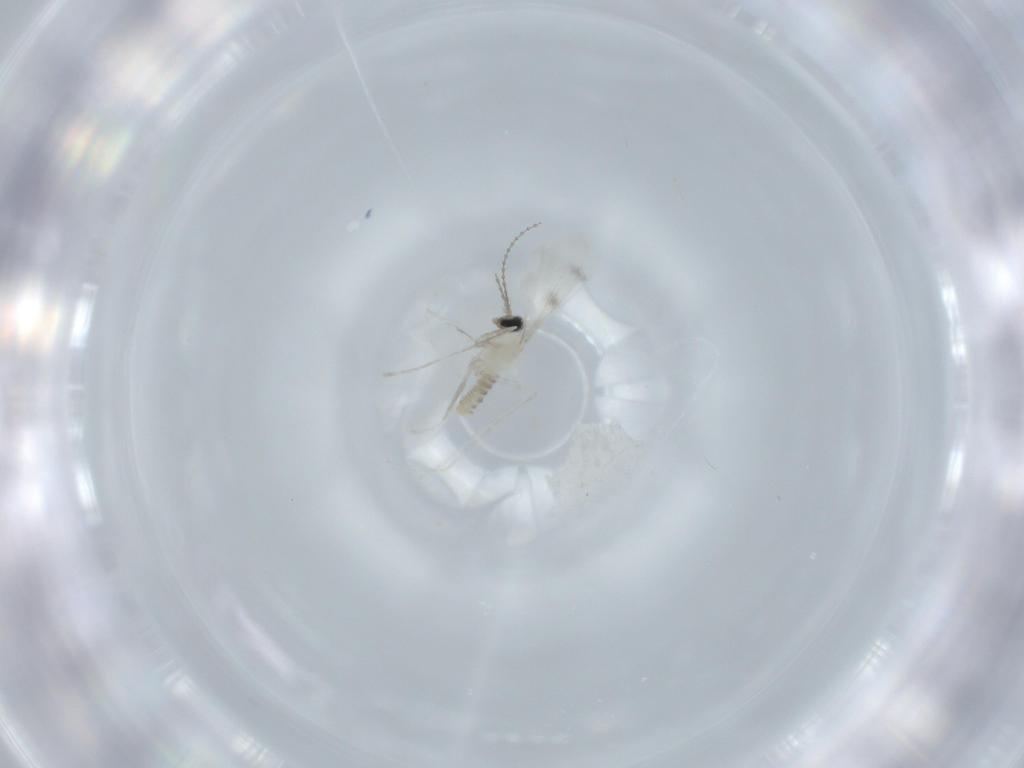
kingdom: Animalia
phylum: Arthropoda
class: Insecta
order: Diptera
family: Cecidomyiidae
